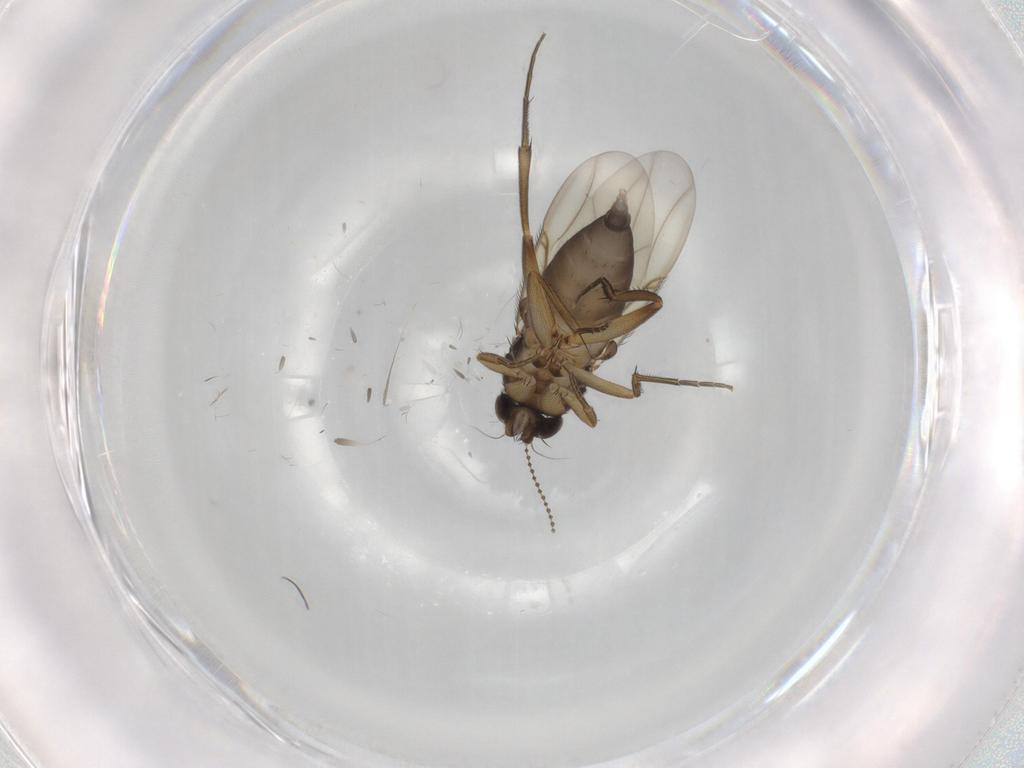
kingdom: Animalia
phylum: Arthropoda
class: Insecta
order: Diptera
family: Phoridae
